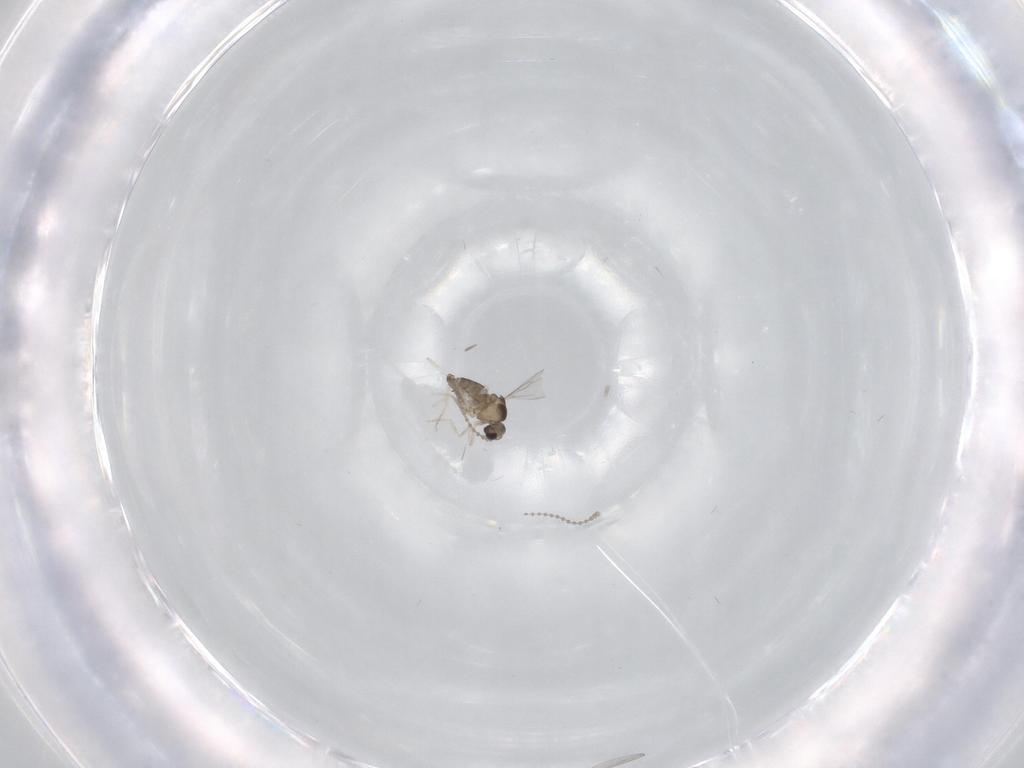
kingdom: Animalia
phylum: Arthropoda
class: Insecta
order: Diptera
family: Cecidomyiidae
